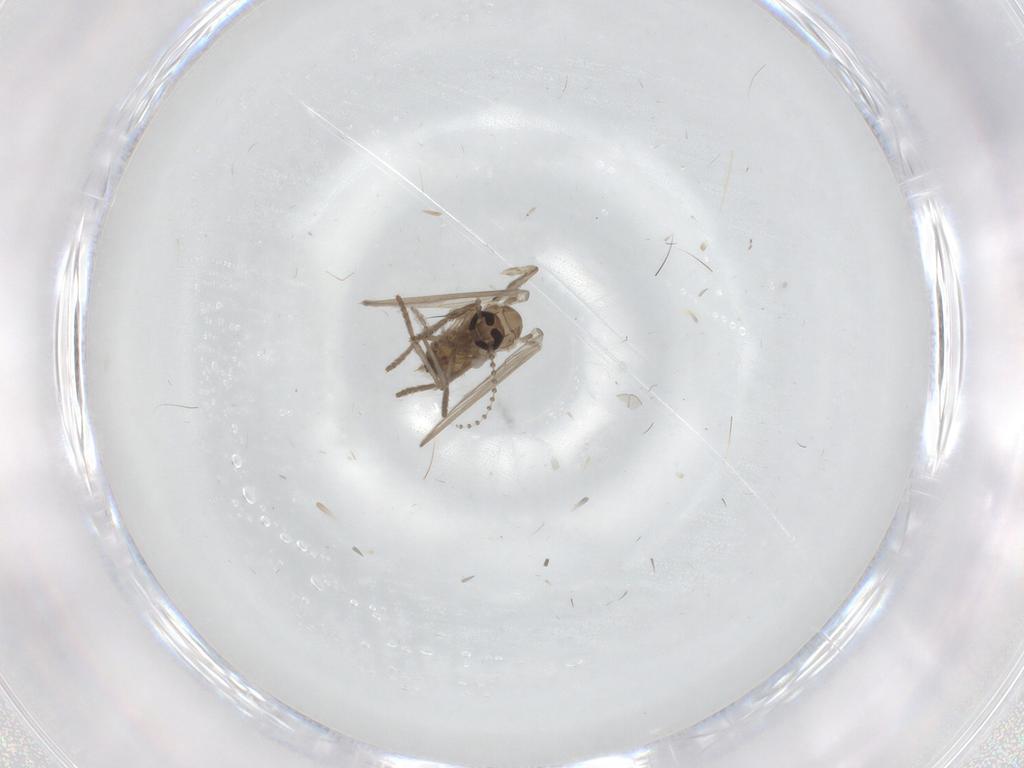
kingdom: Animalia
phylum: Arthropoda
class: Insecta
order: Diptera
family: Psychodidae
